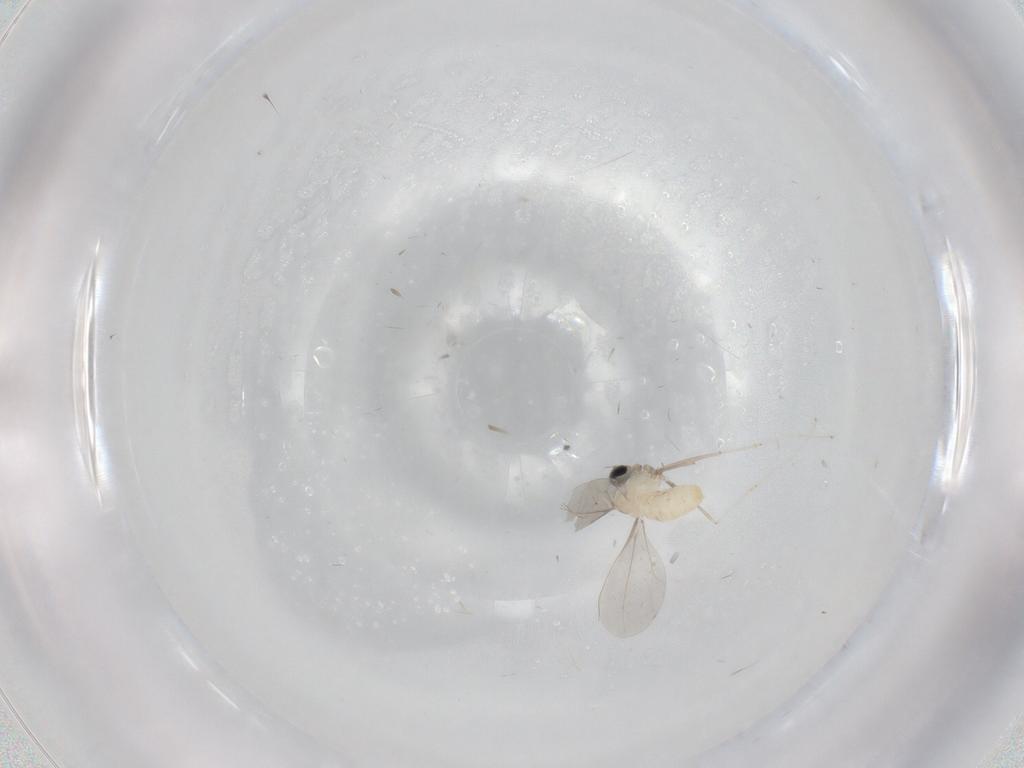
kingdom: Animalia
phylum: Arthropoda
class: Insecta
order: Diptera
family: Cecidomyiidae
